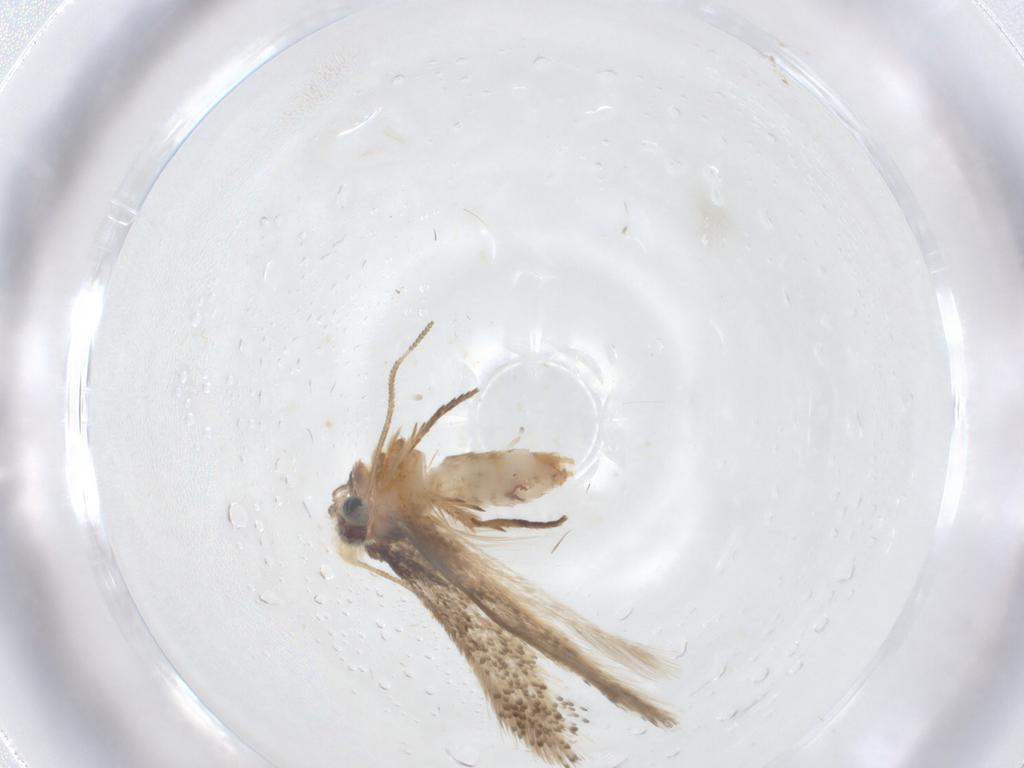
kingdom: Animalia
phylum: Arthropoda
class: Insecta
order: Lepidoptera
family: Nepticulidae
